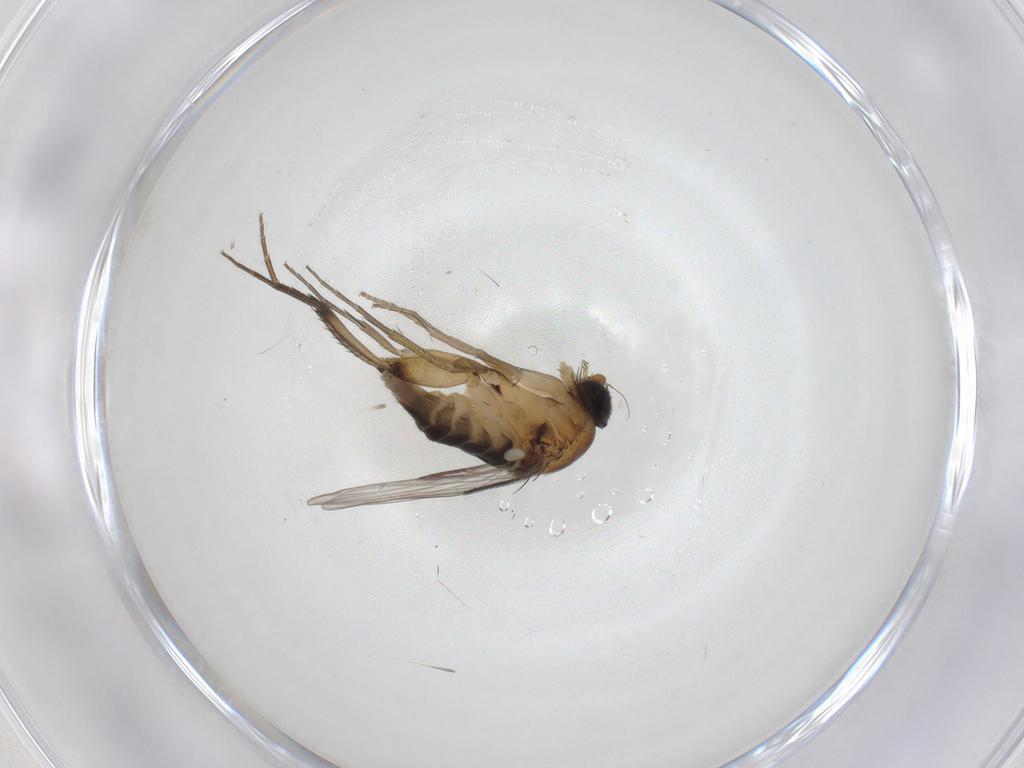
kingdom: Animalia
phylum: Arthropoda
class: Insecta
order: Diptera
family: Phoridae
